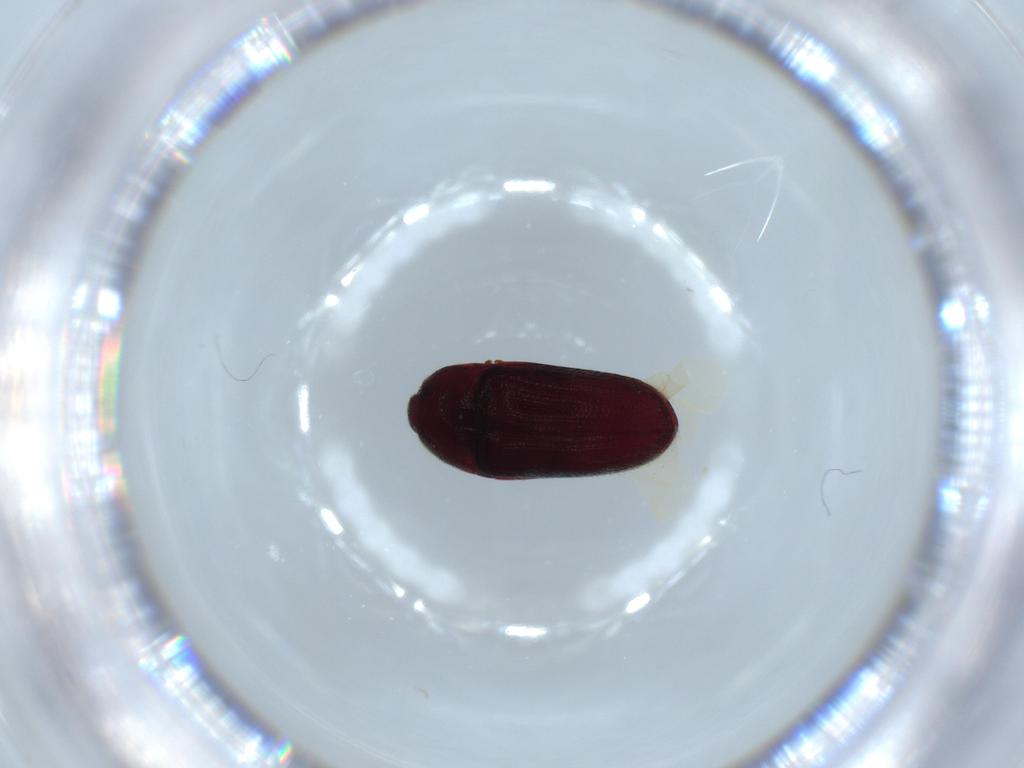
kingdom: Animalia
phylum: Arthropoda
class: Insecta
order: Coleoptera
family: Throscidae
